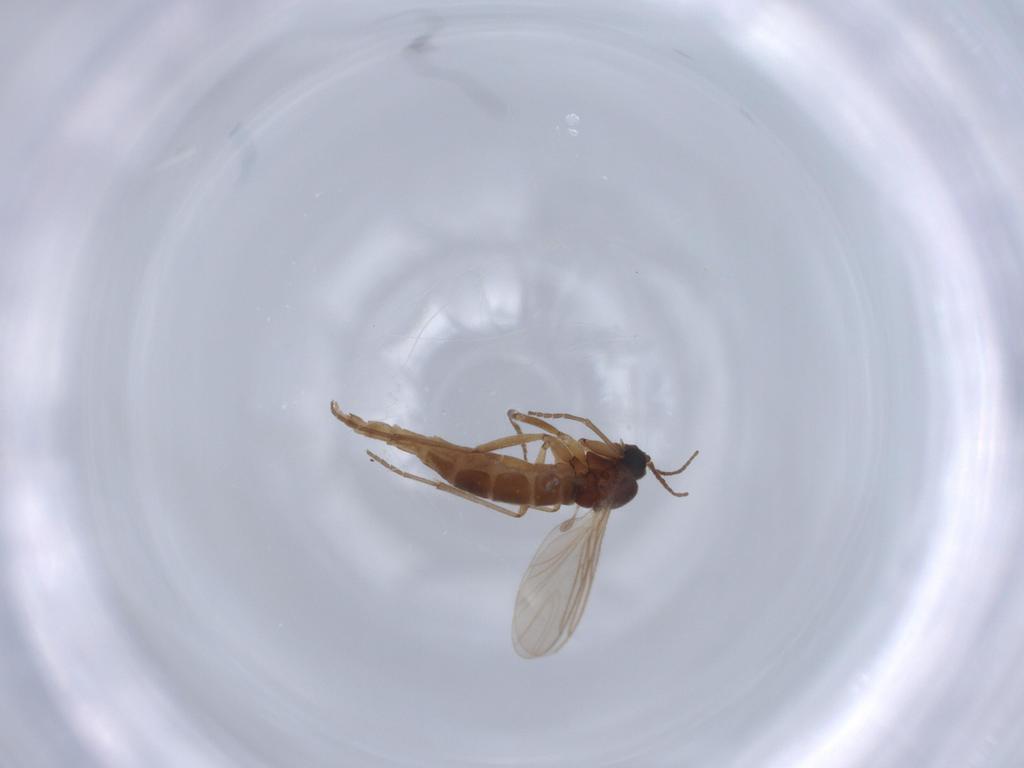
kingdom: Animalia
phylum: Arthropoda
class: Insecta
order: Diptera
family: Sciaridae
